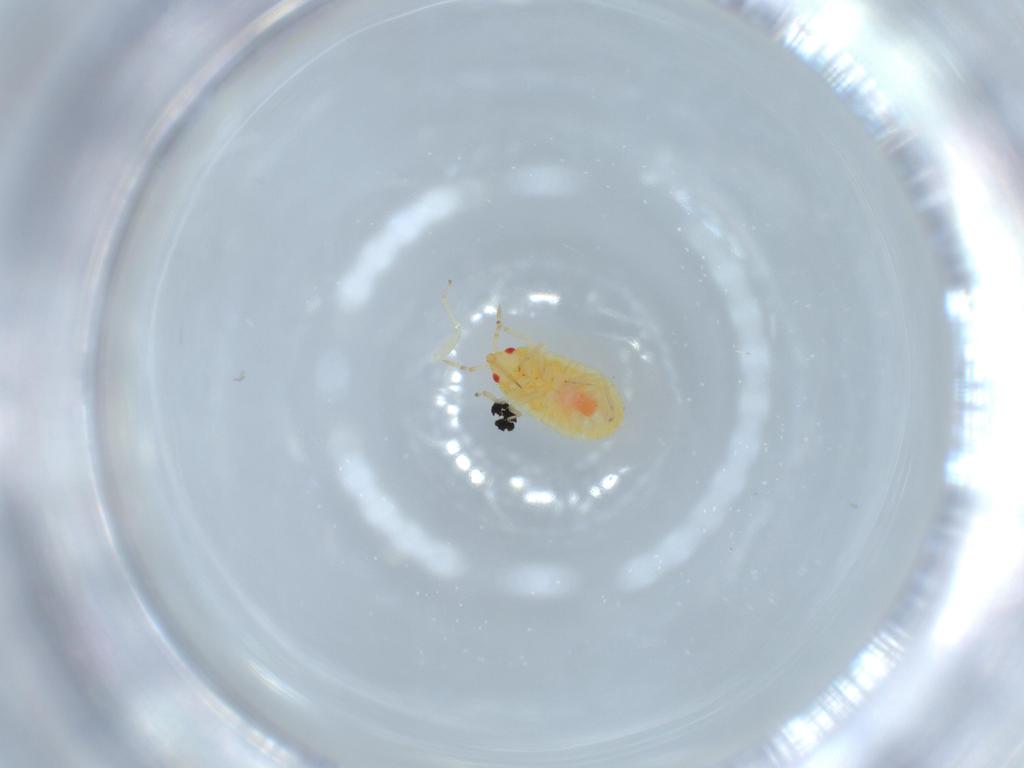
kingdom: Animalia
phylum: Arthropoda
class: Insecta
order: Hemiptera
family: Anthocoridae
